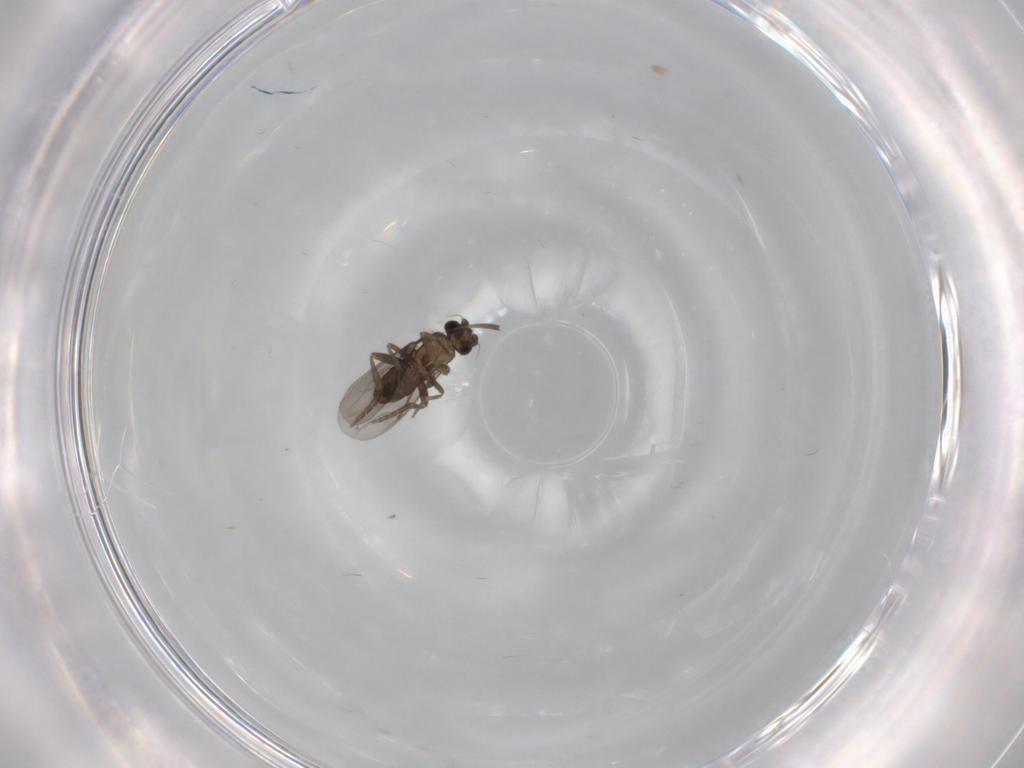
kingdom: Animalia
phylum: Arthropoda
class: Insecta
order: Diptera
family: Phoridae
